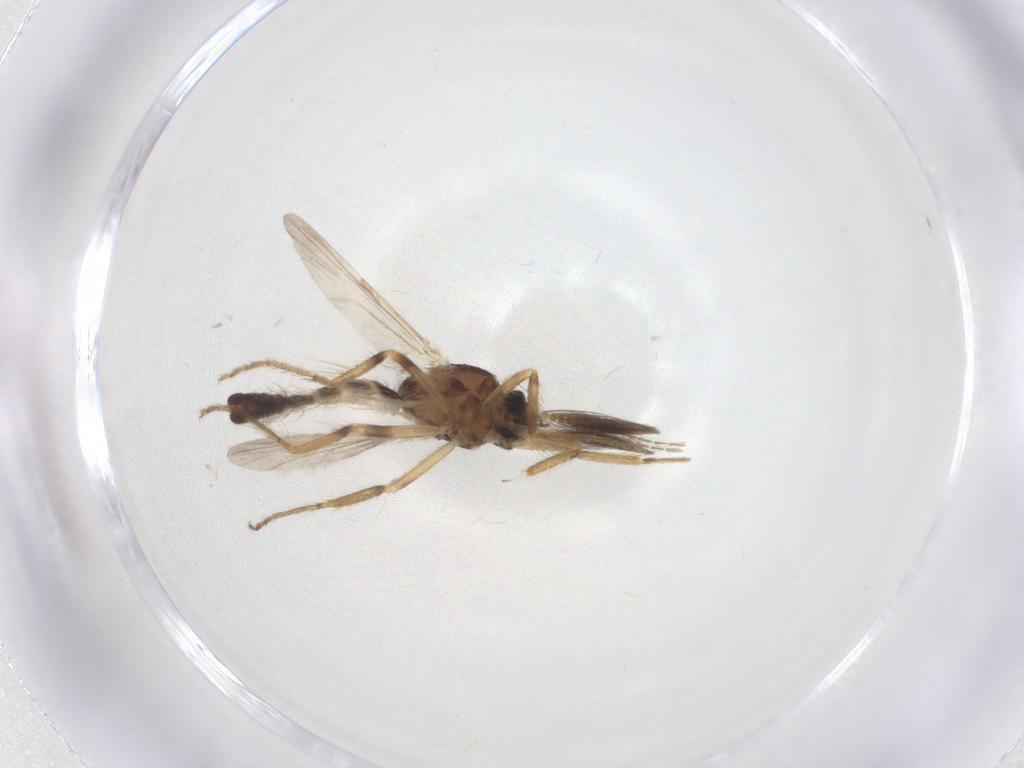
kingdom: Animalia
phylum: Arthropoda
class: Insecta
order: Diptera
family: Ceratopogonidae
